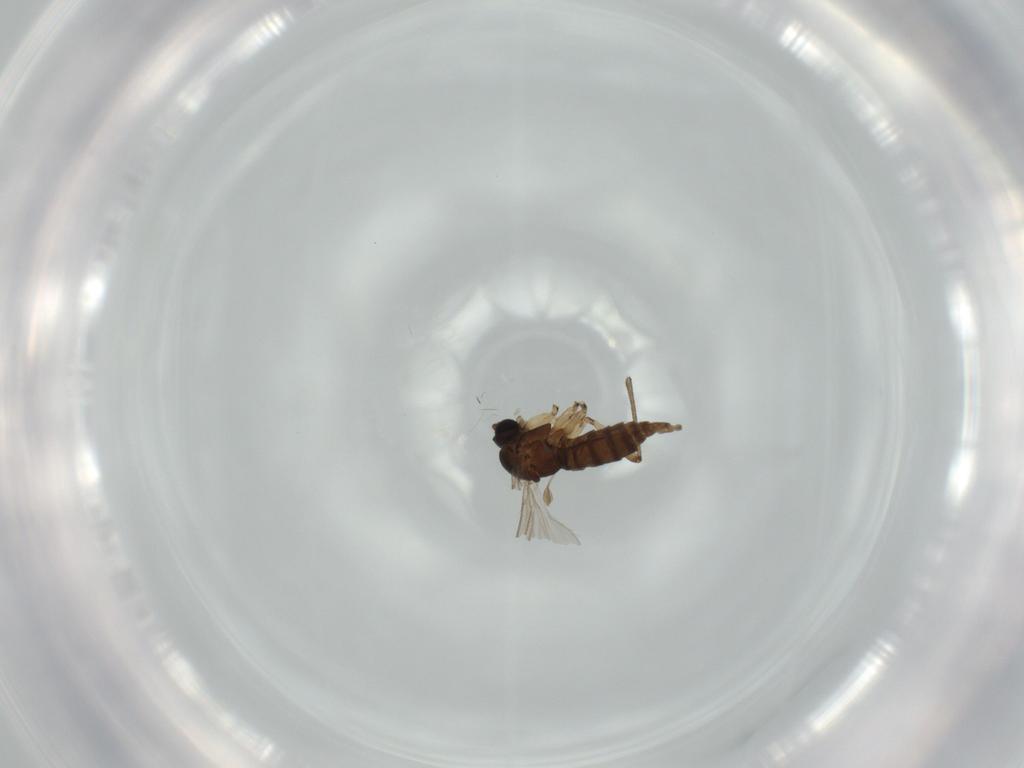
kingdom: Animalia
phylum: Arthropoda
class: Insecta
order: Diptera
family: Sciaridae
